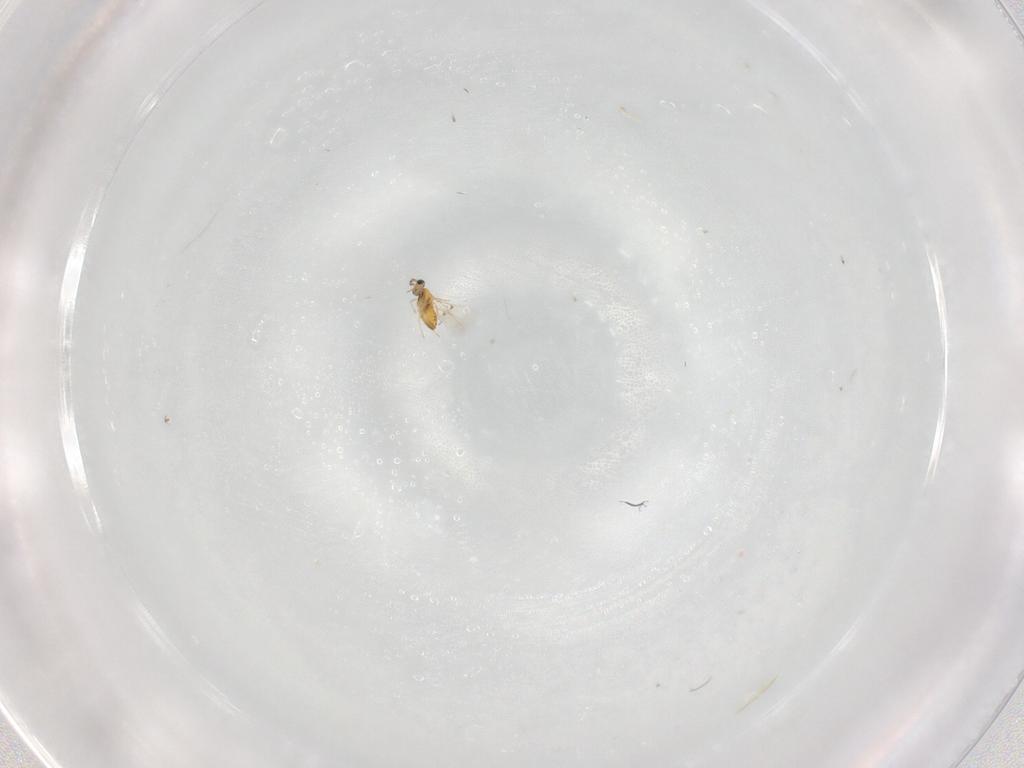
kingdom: Animalia
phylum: Arthropoda
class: Insecta
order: Hymenoptera
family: Trichogrammatidae
